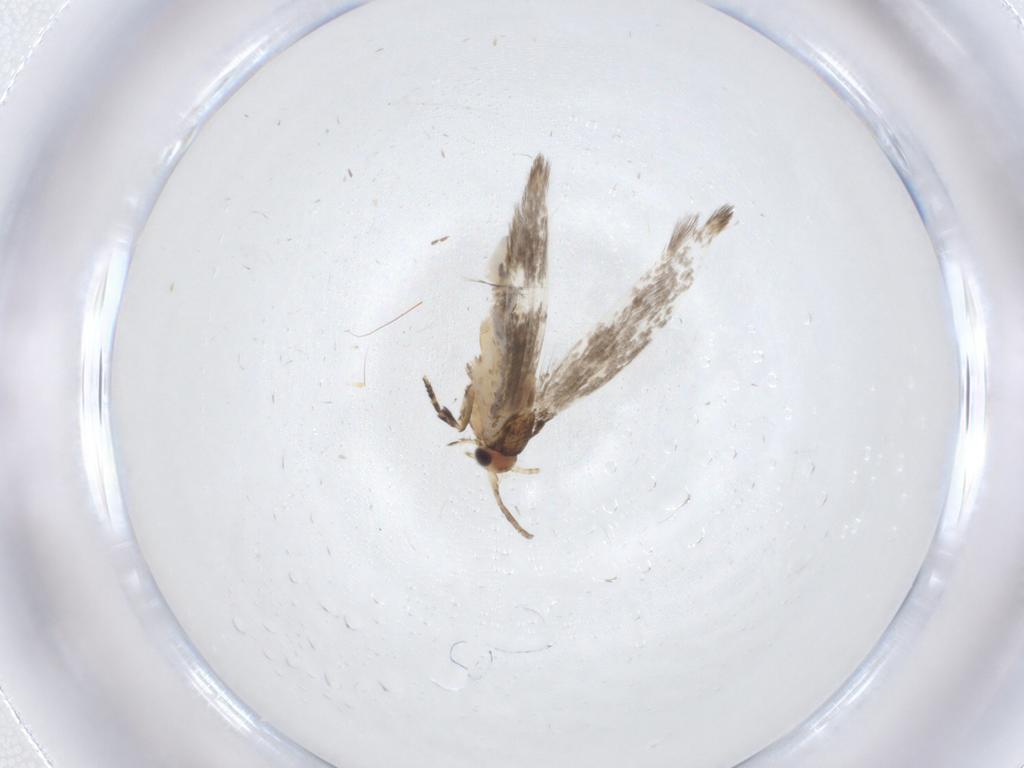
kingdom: Animalia
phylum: Arthropoda
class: Insecta
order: Lepidoptera
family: Tineidae
